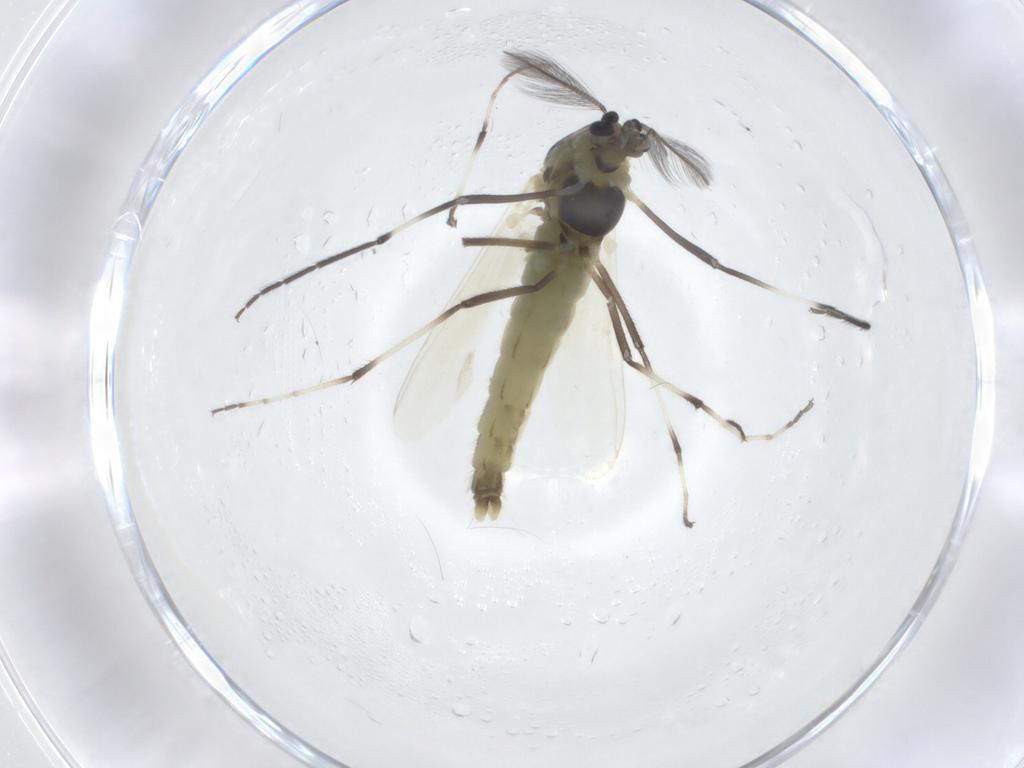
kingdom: Animalia
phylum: Arthropoda
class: Insecta
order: Diptera
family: Chironomidae
